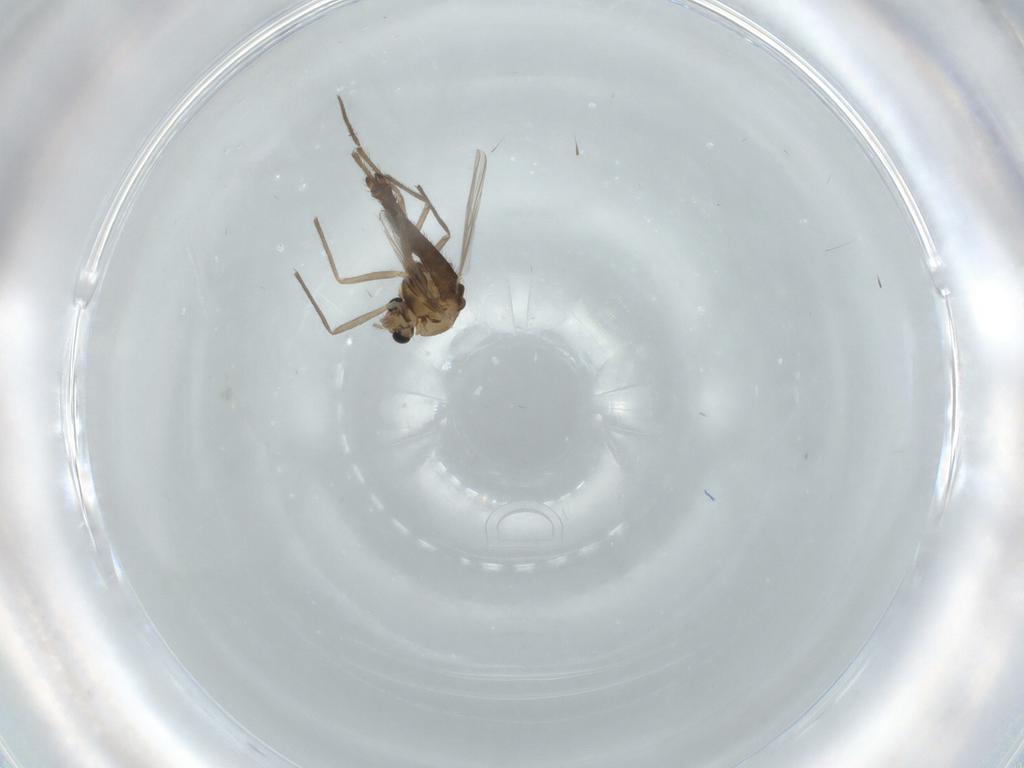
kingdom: Animalia
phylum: Arthropoda
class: Insecta
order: Diptera
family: Chironomidae
